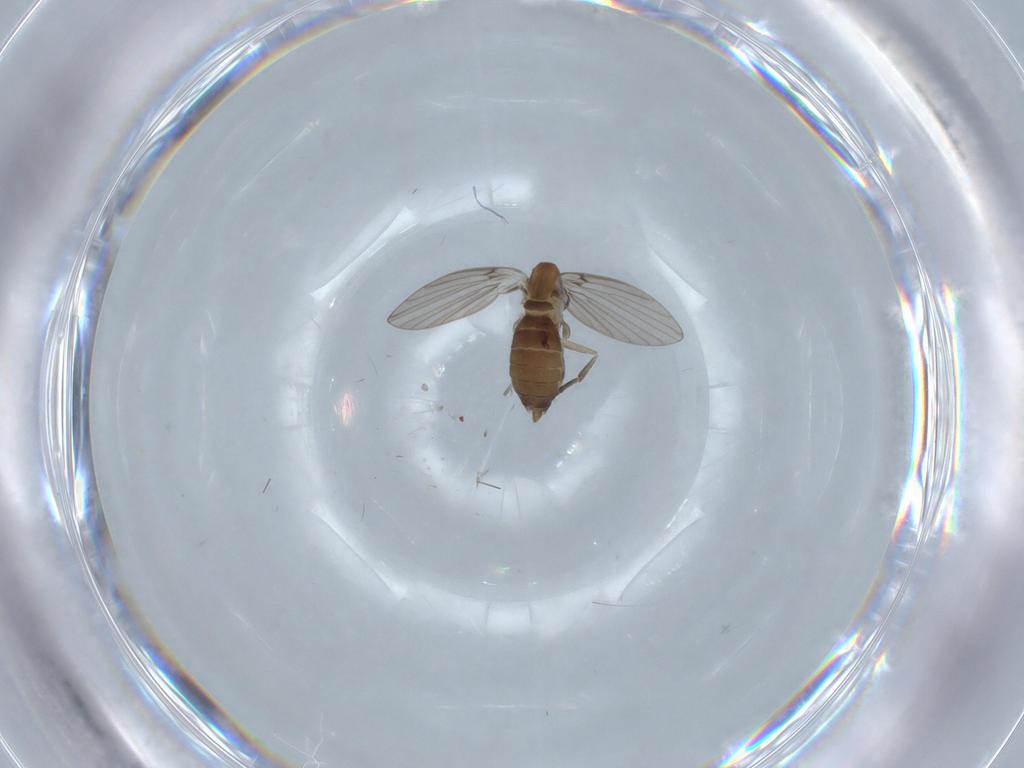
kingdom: Animalia
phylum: Arthropoda
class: Insecta
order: Diptera
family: Psychodidae
